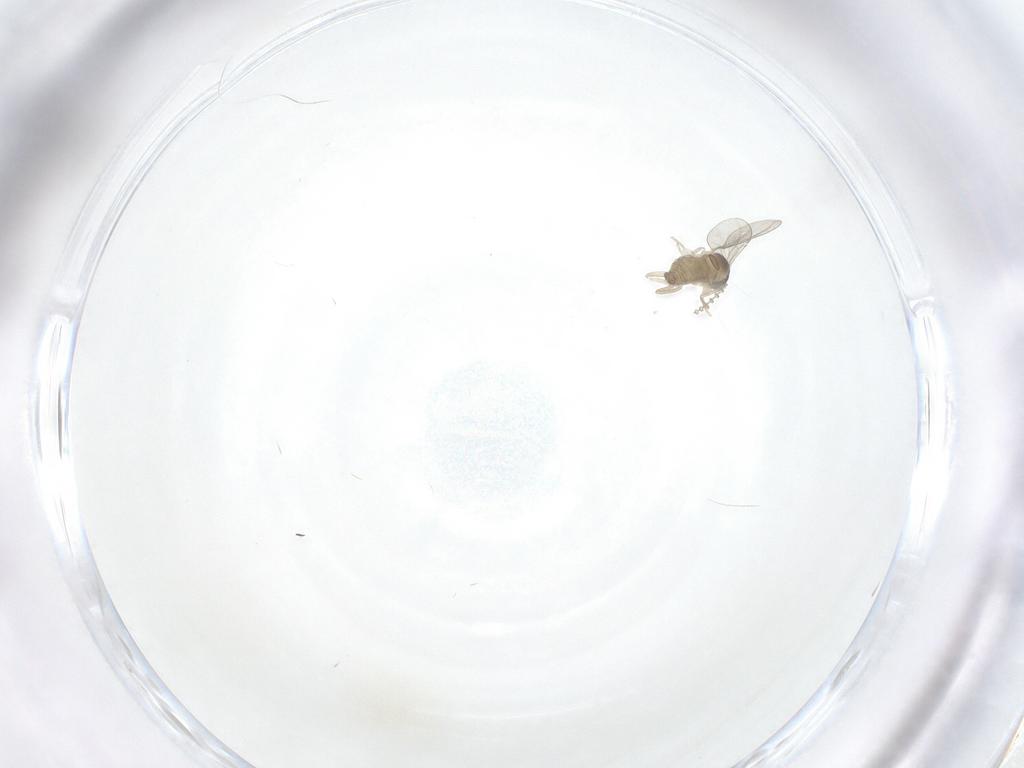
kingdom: Animalia
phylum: Arthropoda
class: Insecta
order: Diptera
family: Cecidomyiidae
